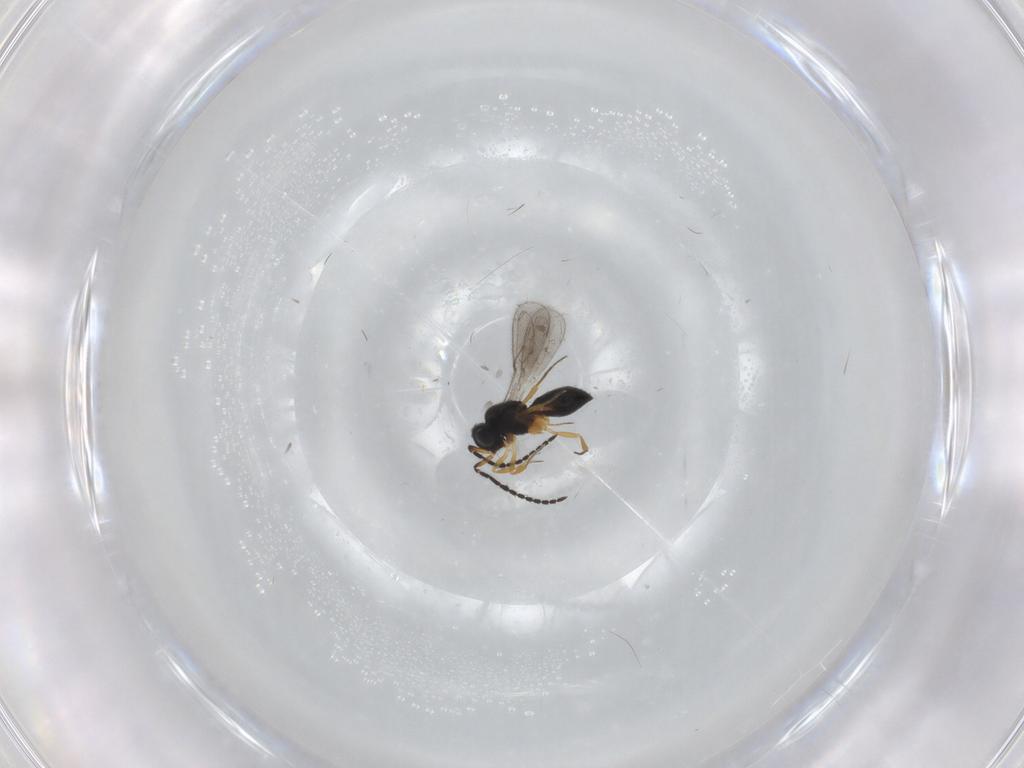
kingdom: Animalia
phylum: Arthropoda
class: Insecta
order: Hymenoptera
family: Scelionidae
